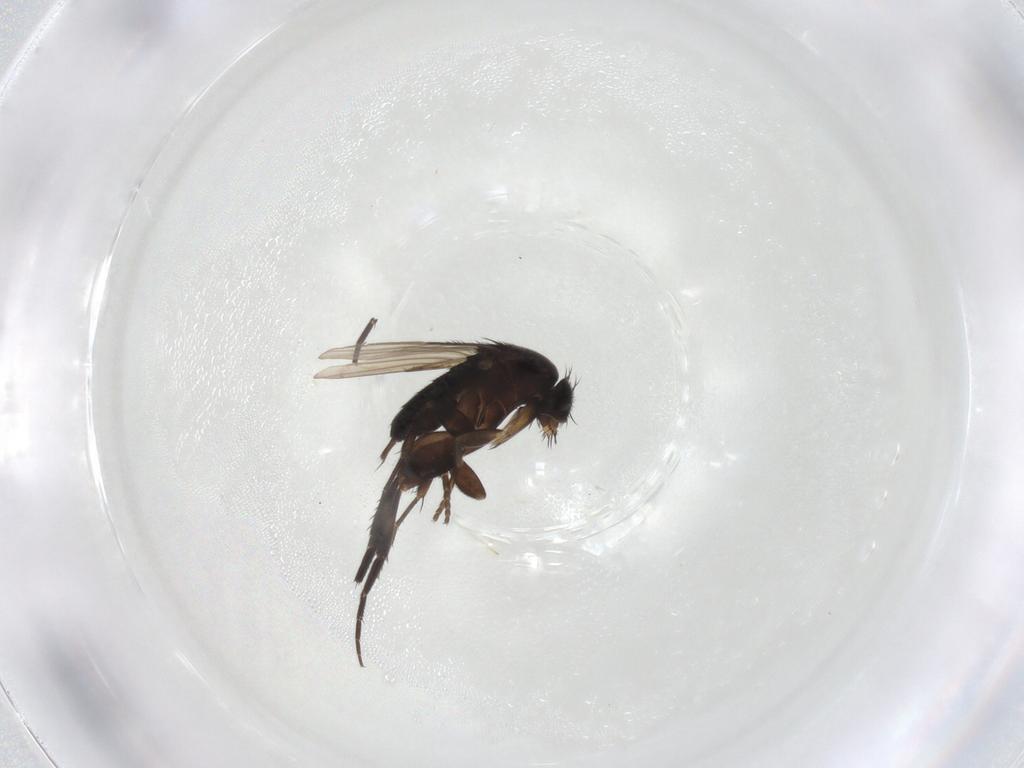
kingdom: Animalia
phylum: Arthropoda
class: Insecta
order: Diptera
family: Phoridae
